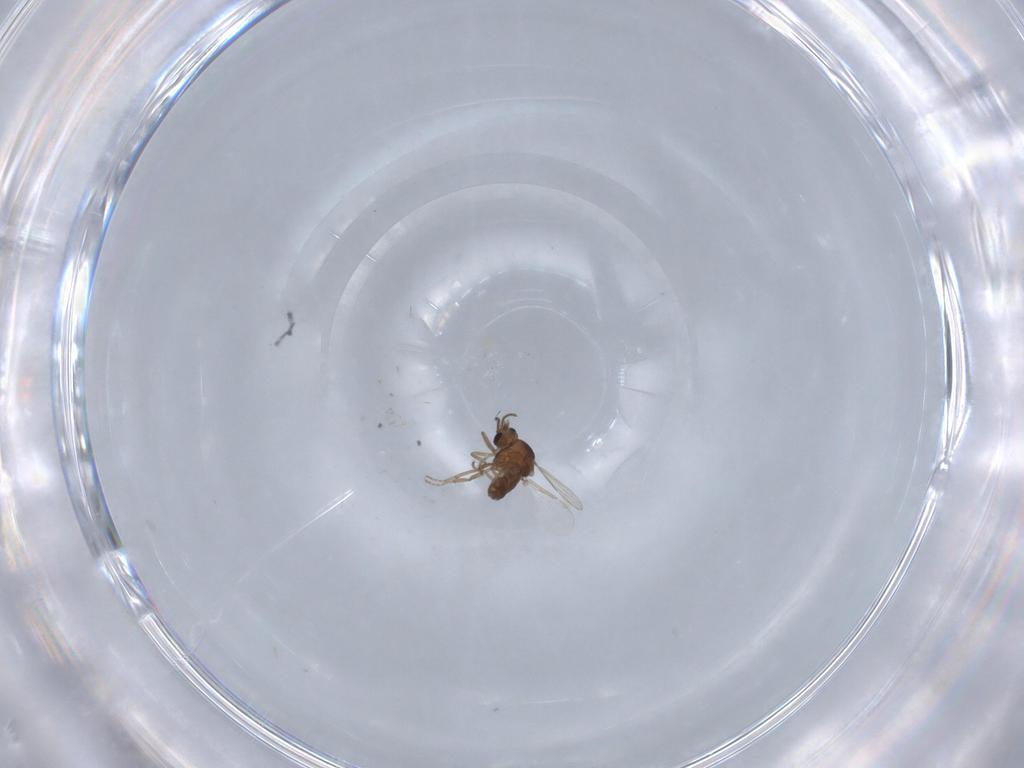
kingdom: Animalia
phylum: Arthropoda
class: Insecta
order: Diptera
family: Ceratopogonidae
